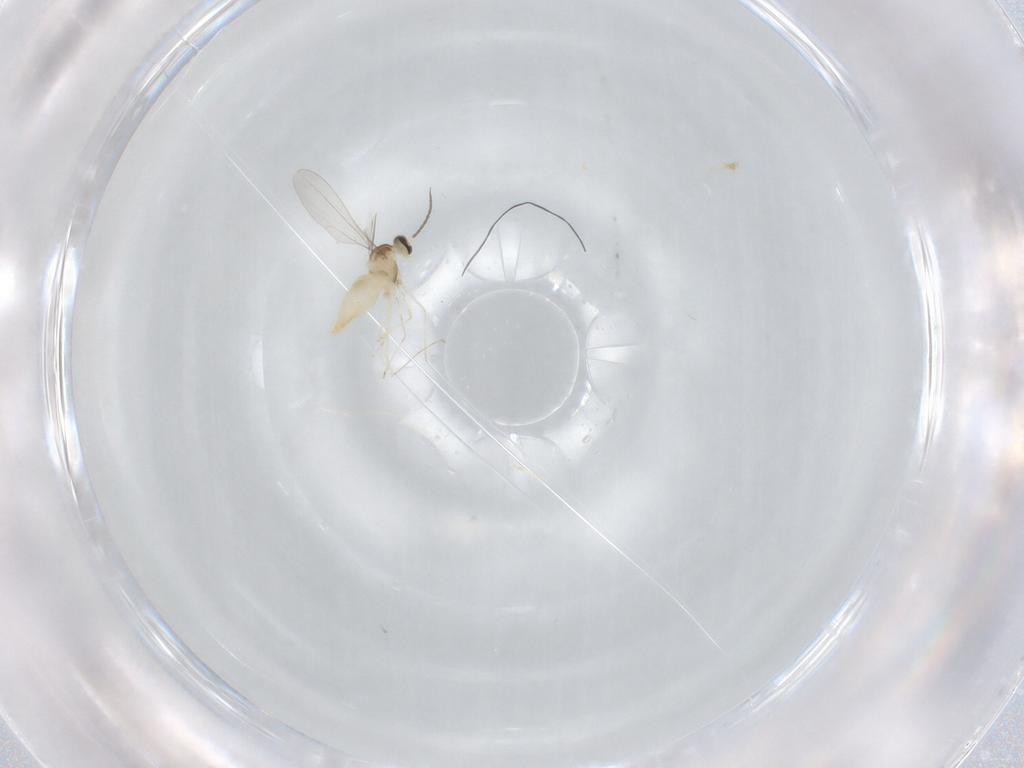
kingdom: Animalia
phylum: Arthropoda
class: Insecta
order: Diptera
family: Cecidomyiidae
